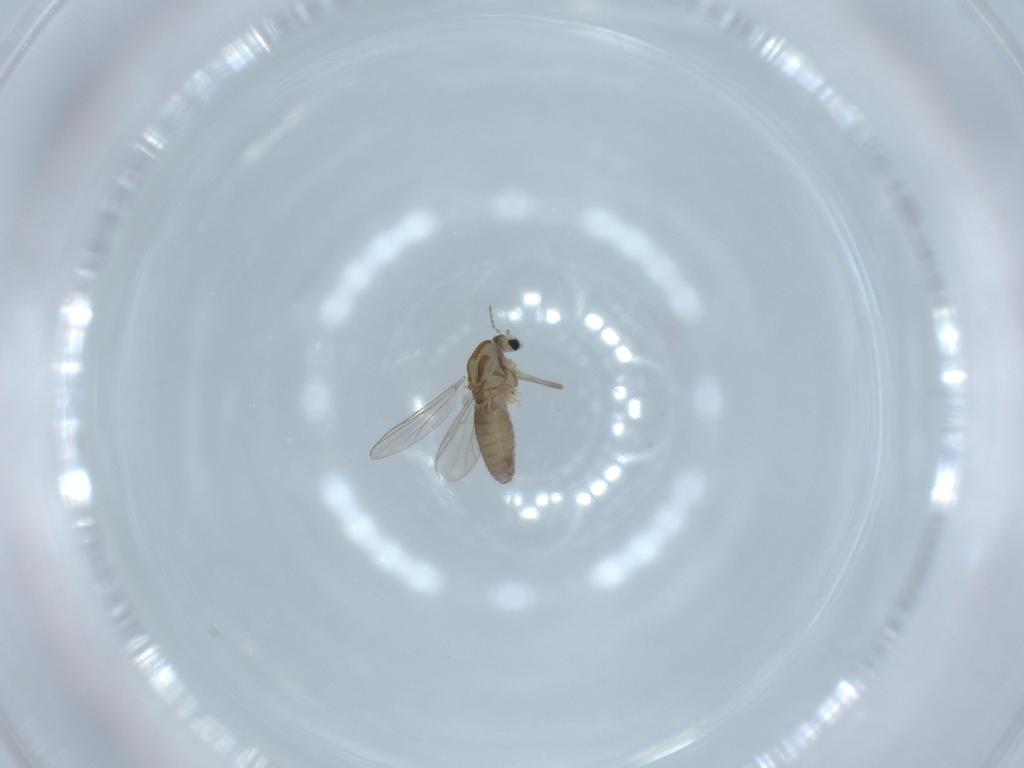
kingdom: Animalia
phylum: Arthropoda
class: Insecta
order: Diptera
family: Chironomidae
